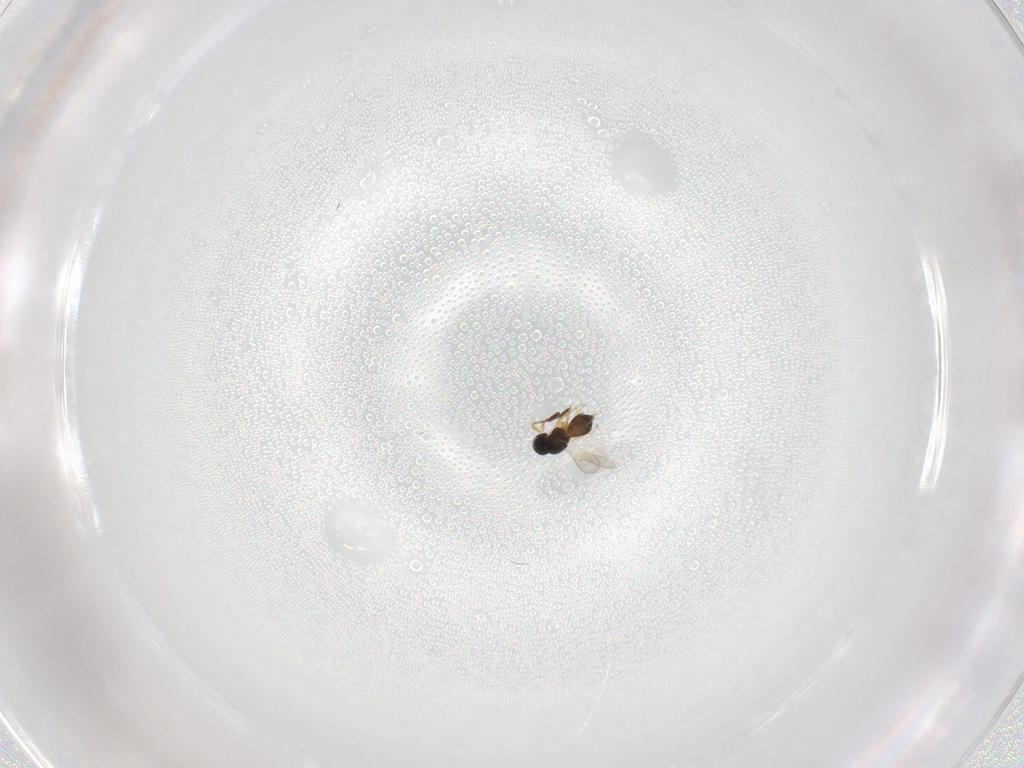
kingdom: Animalia
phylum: Arthropoda
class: Insecta
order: Hymenoptera
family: Scelionidae
